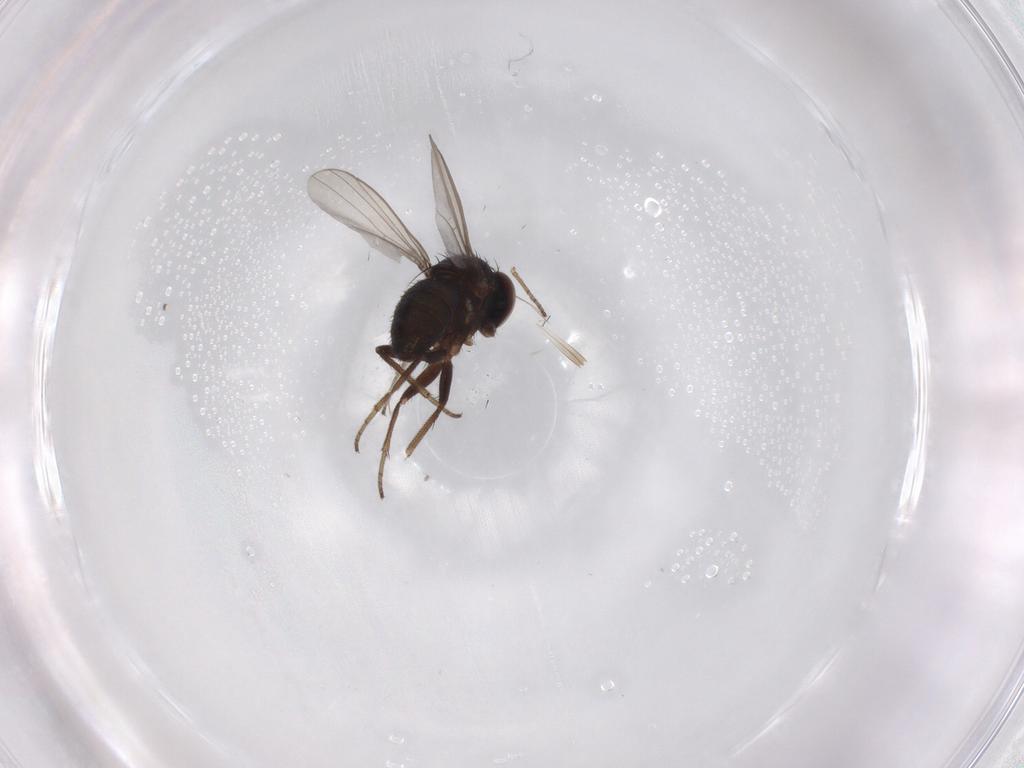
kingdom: Animalia
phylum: Arthropoda
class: Insecta
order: Diptera
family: Dolichopodidae
